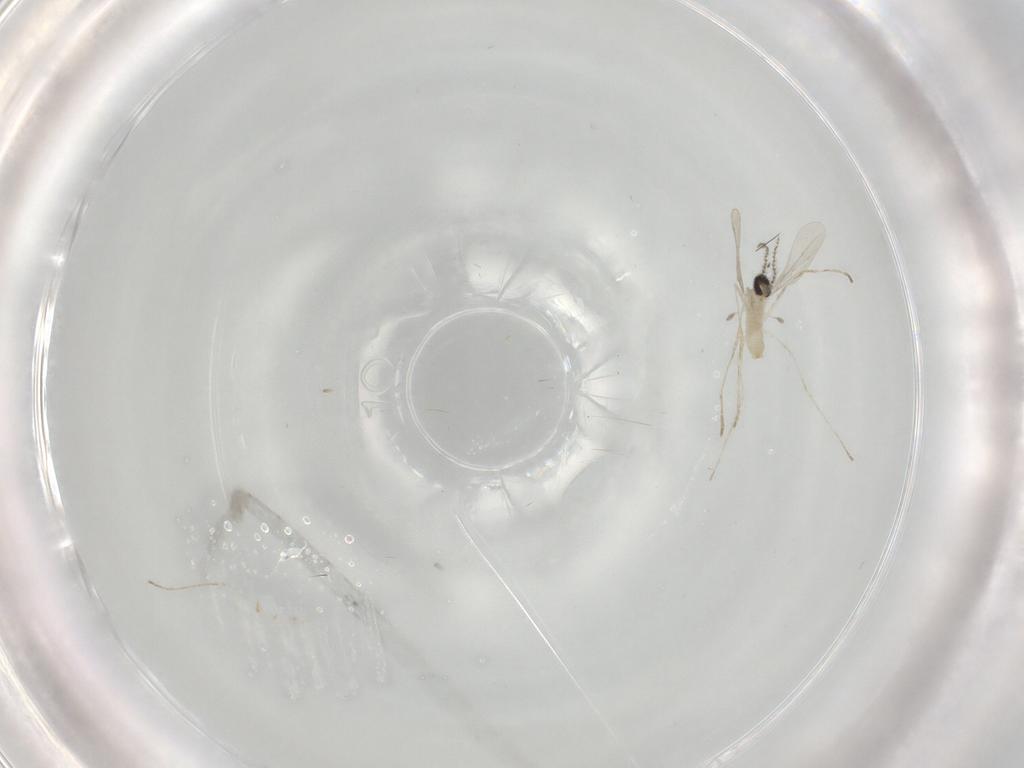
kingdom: Animalia
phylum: Arthropoda
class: Insecta
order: Diptera
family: Cecidomyiidae
